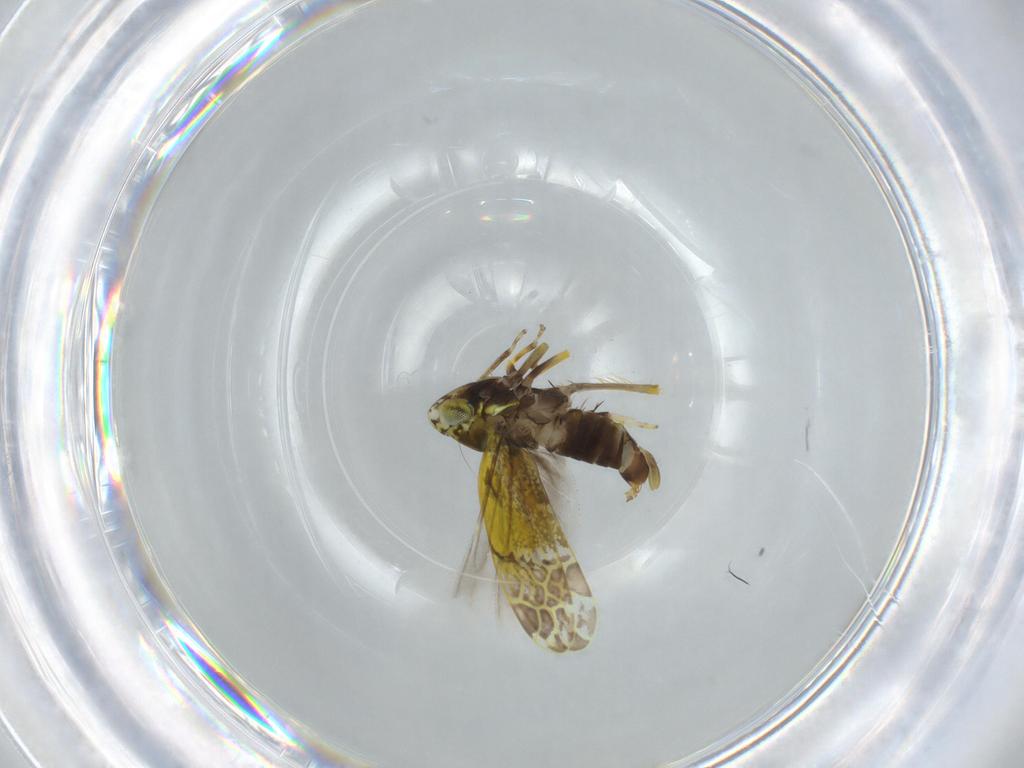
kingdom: Animalia
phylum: Arthropoda
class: Insecta
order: Hemiptera
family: Cicadellidae
